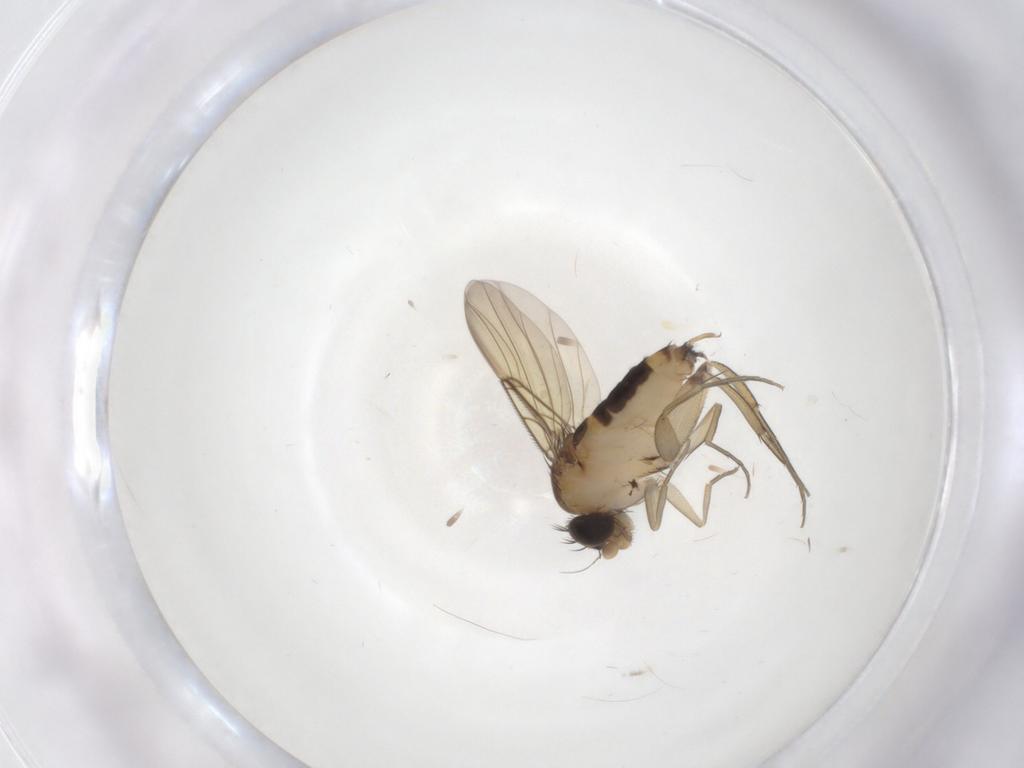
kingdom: Animalia
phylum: Arthropoda
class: Insecta
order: Diptera
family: Phoridae
